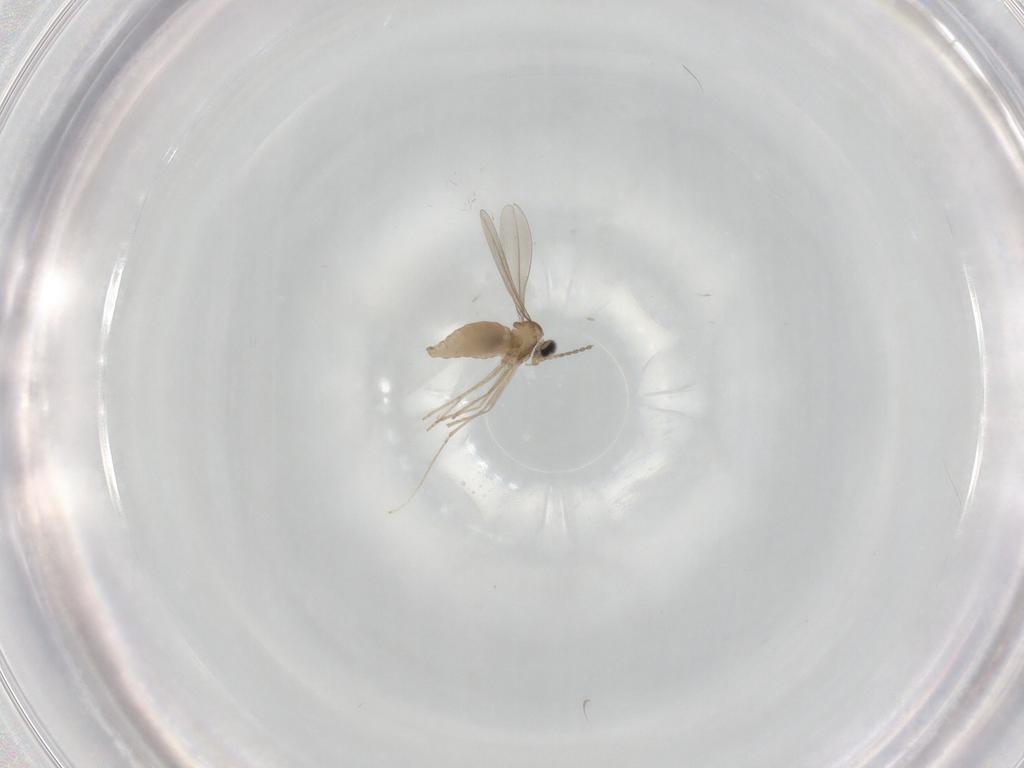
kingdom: Animalia
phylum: Arthropoda
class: Insecta
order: Diptera
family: Cecidomyiidae
